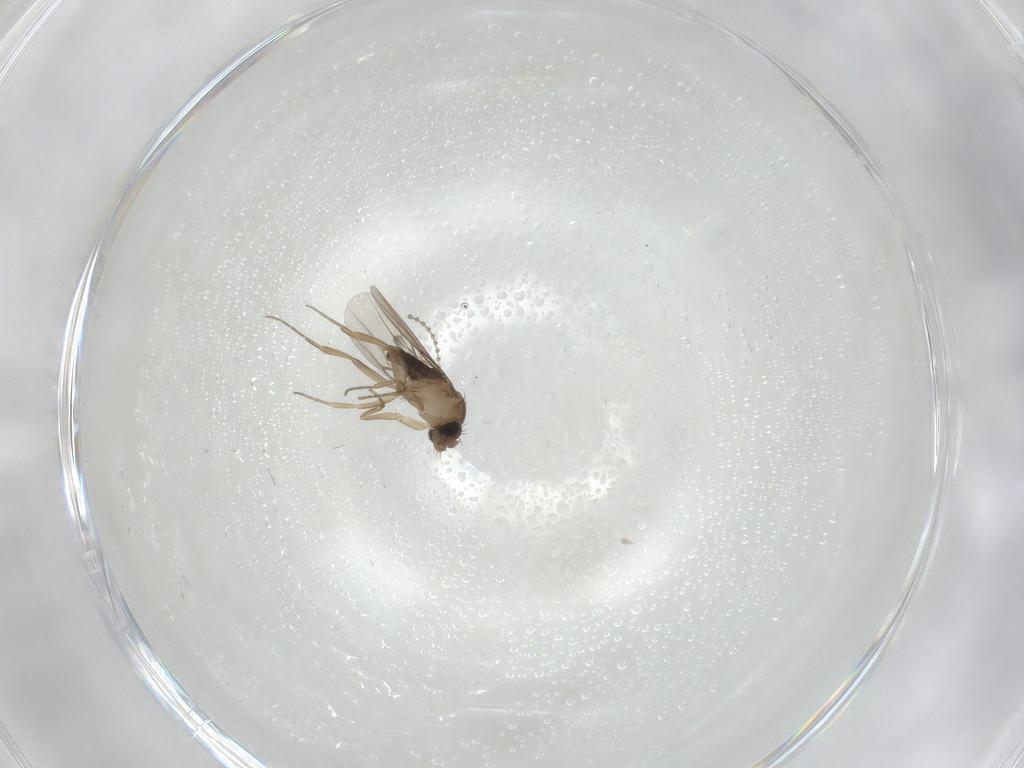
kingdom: Animalia
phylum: Arthropoda
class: Insecta
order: Diptera
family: Phoridae
